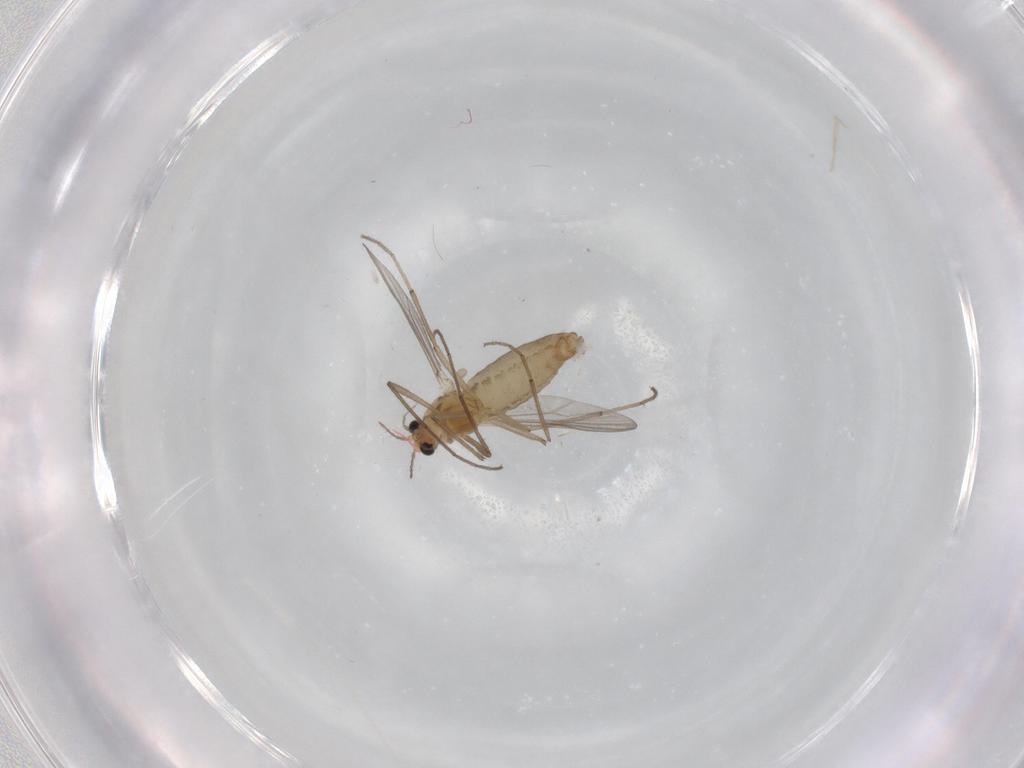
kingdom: Animalia
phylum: Arthropoda
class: Insecta
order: Diptera
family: Chironomidae
